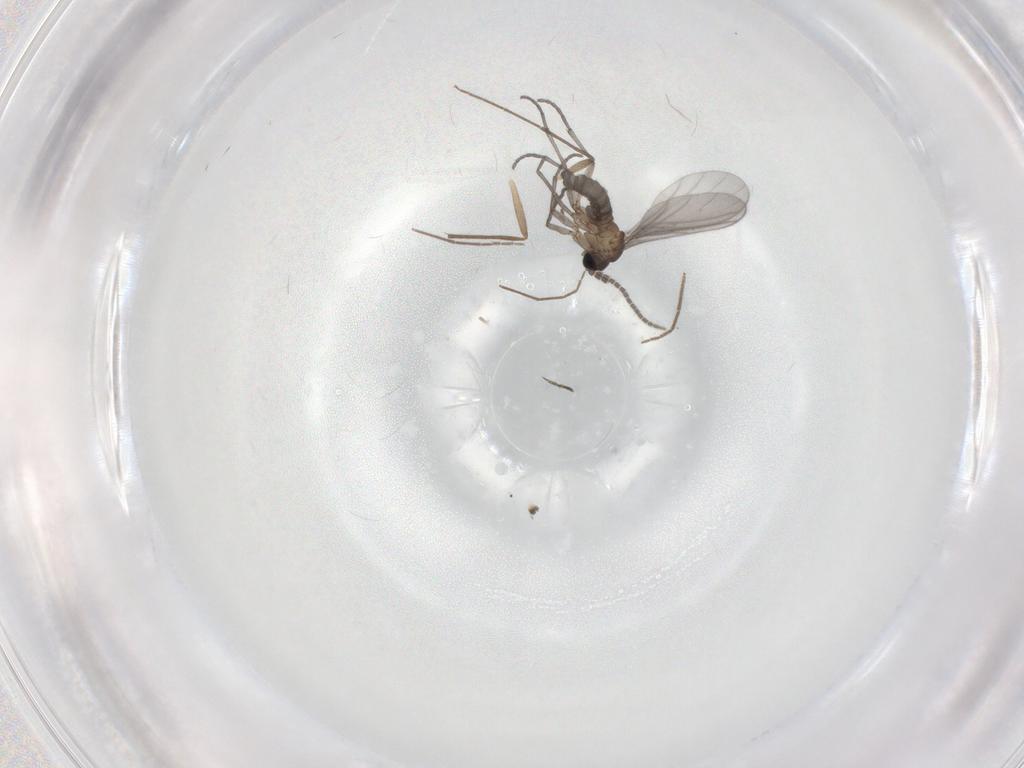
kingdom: Animalia
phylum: Arthropoda
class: Insecta
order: Diptera
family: Sciaridae
